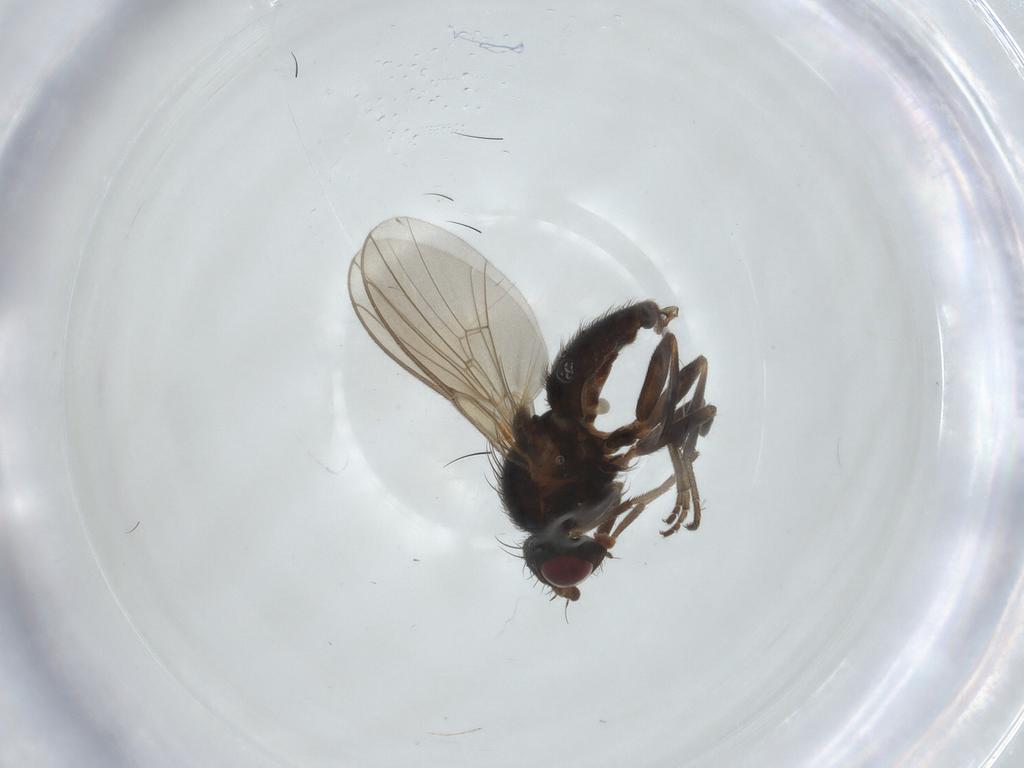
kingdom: Animalia
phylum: Arthropoda
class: Insecta
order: Diptera
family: Agromyzidae
